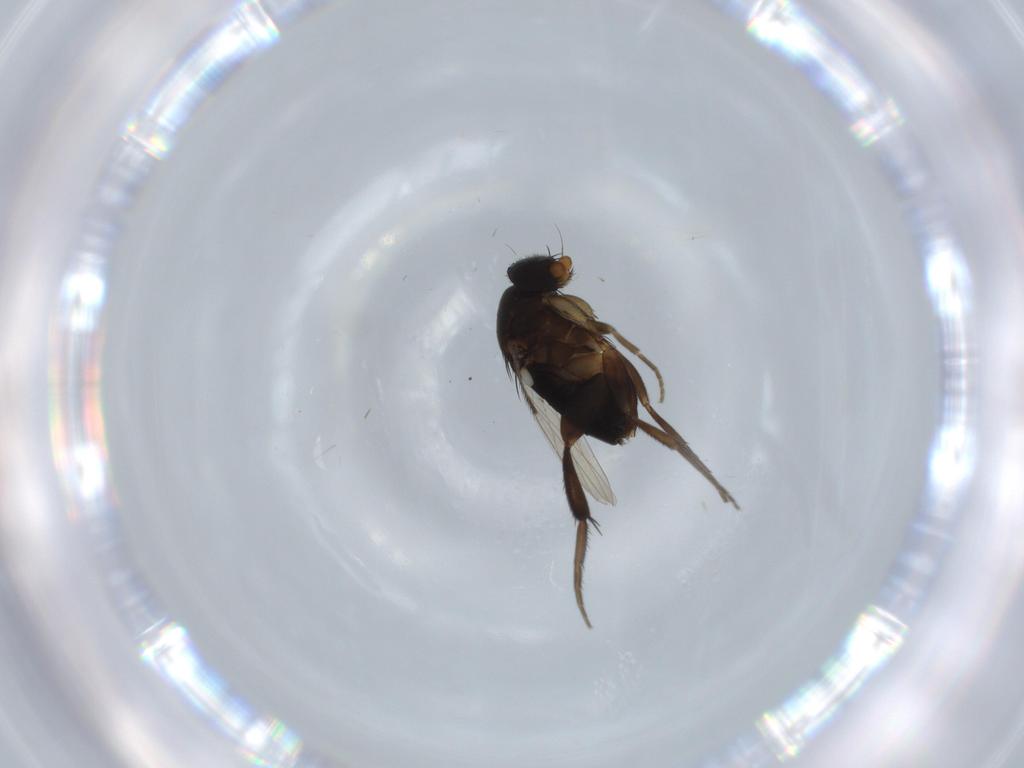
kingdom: Animalia
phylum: Arthropoda
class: Insecta
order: Diptera
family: Phoridae
